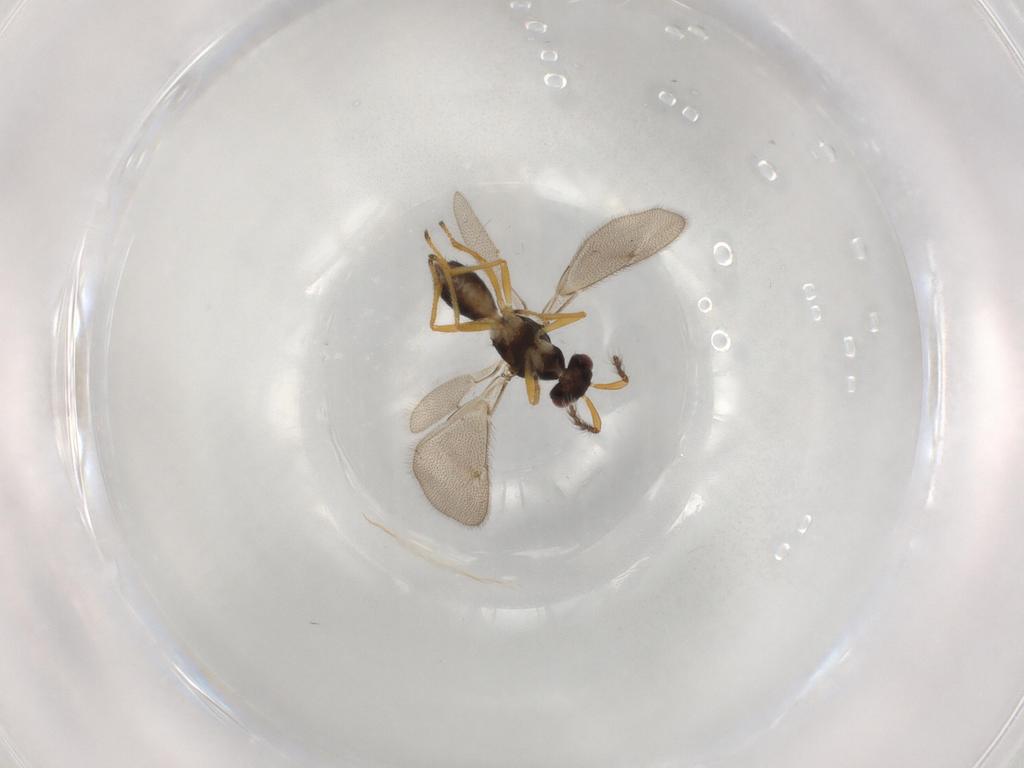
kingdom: Animalia
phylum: Arthropoda
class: Insecta
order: Hymenoptera
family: Eulophidae
